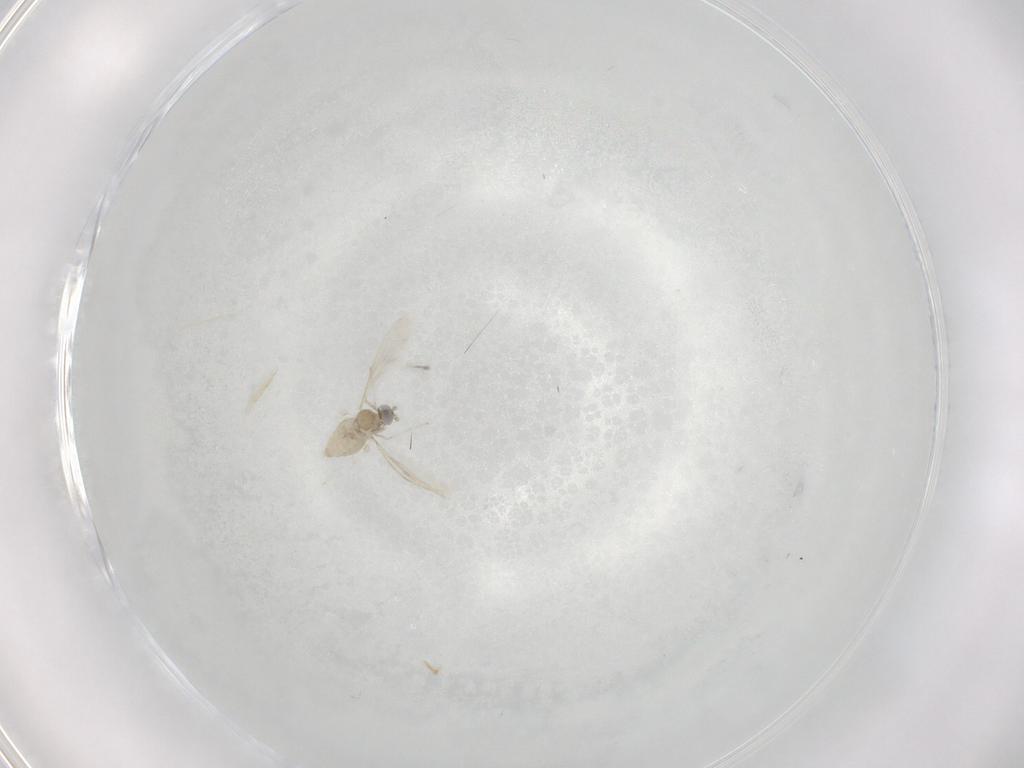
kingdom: Animalia
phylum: Arthropoda
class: Insecta
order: Diptera
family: Cecidomyiidae
